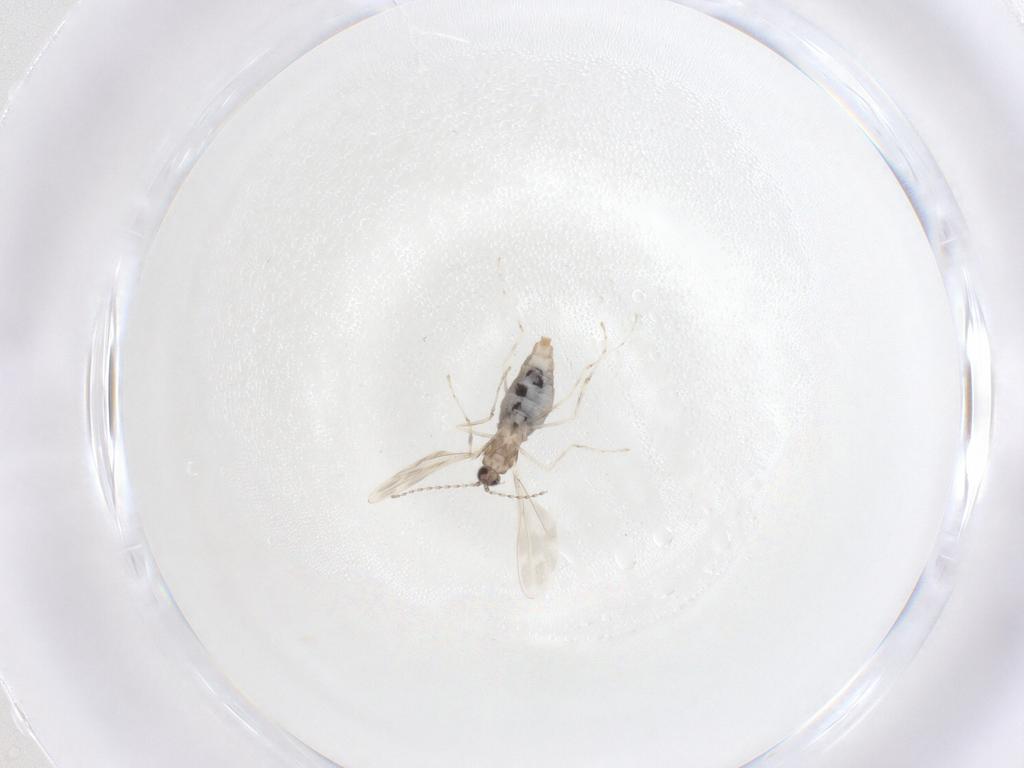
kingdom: Animalia
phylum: Arthropoda
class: Insecta
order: Diptera
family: Cecidomyiidae
